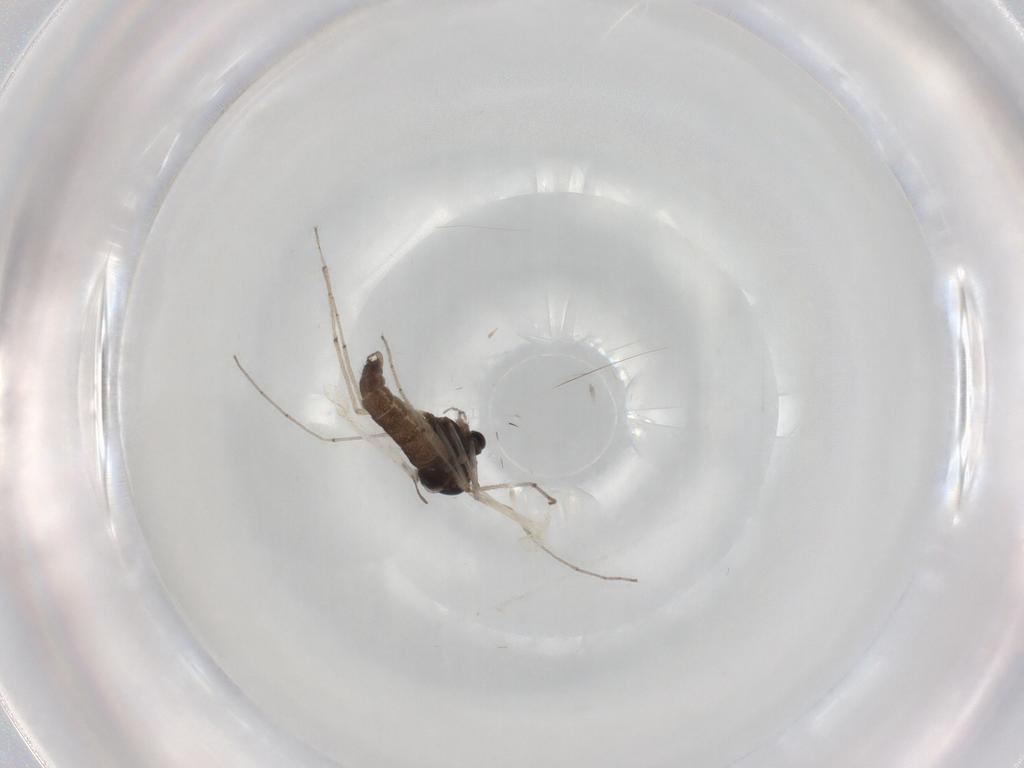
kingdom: Animalia
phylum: Arthropoda
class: Insecta
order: Diptera
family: Chironomidae
